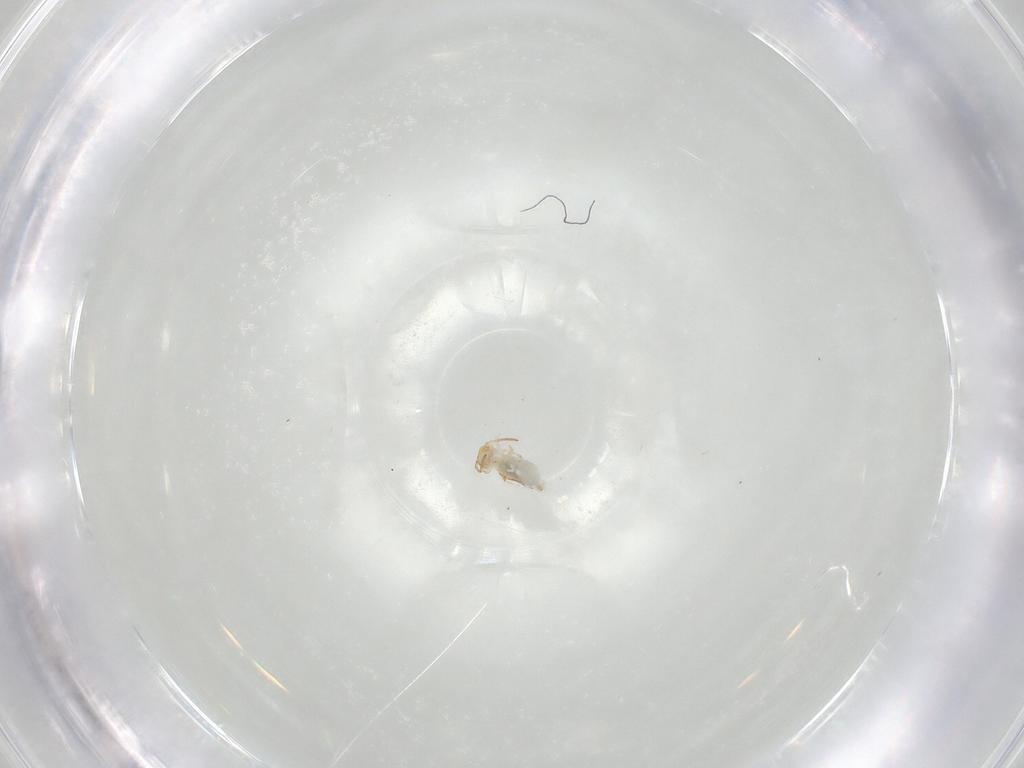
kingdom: Animalia
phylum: Arthropoda
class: Collembola
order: Symphypleona
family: Bourletiellidae
